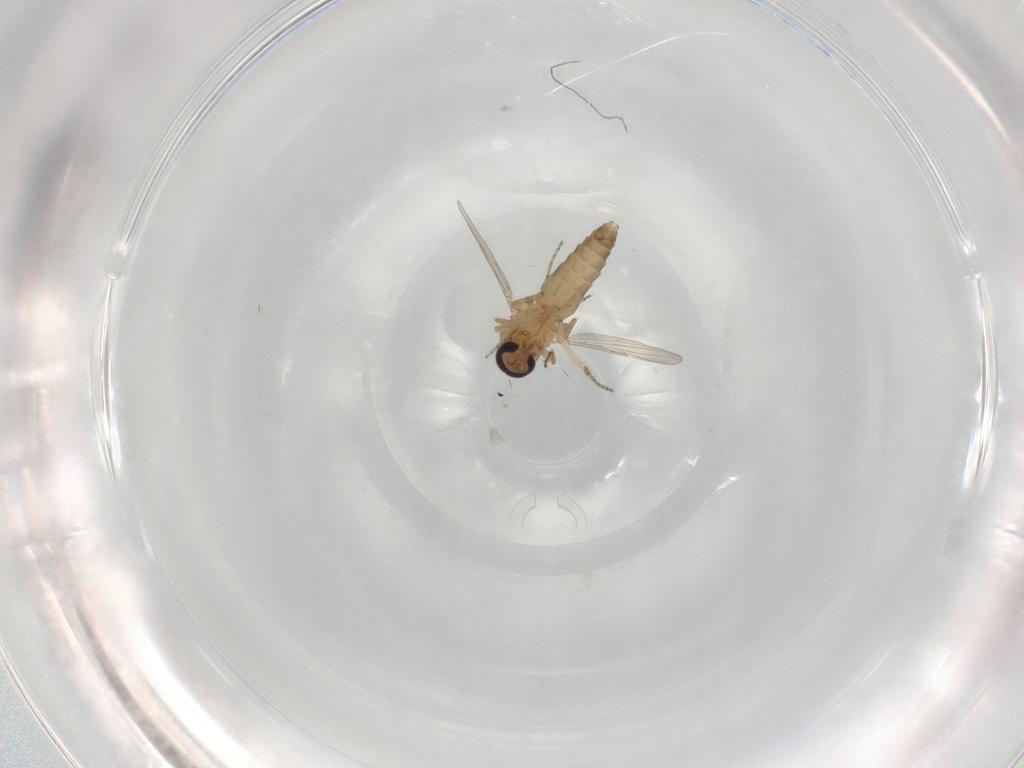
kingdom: Animalia
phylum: Arthropoda
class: Insecta
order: Diptera
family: Ceratopogonidae
